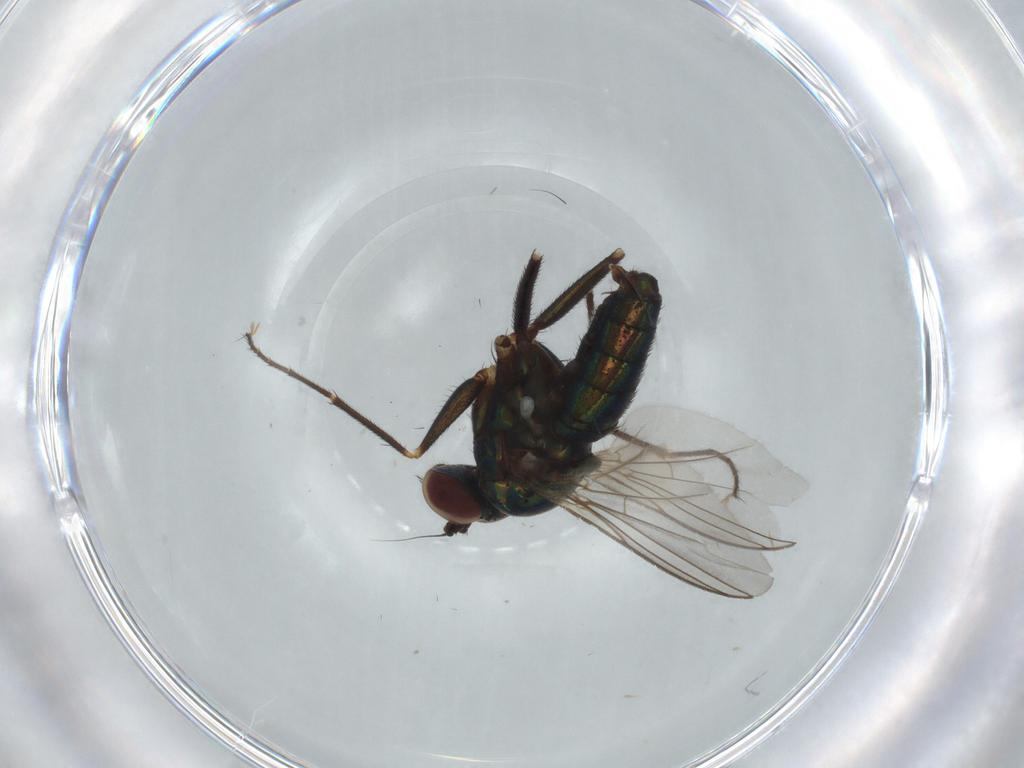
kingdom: Animalia
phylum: Arthropoda
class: Insecta
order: Diptera
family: Dolichopodidae
